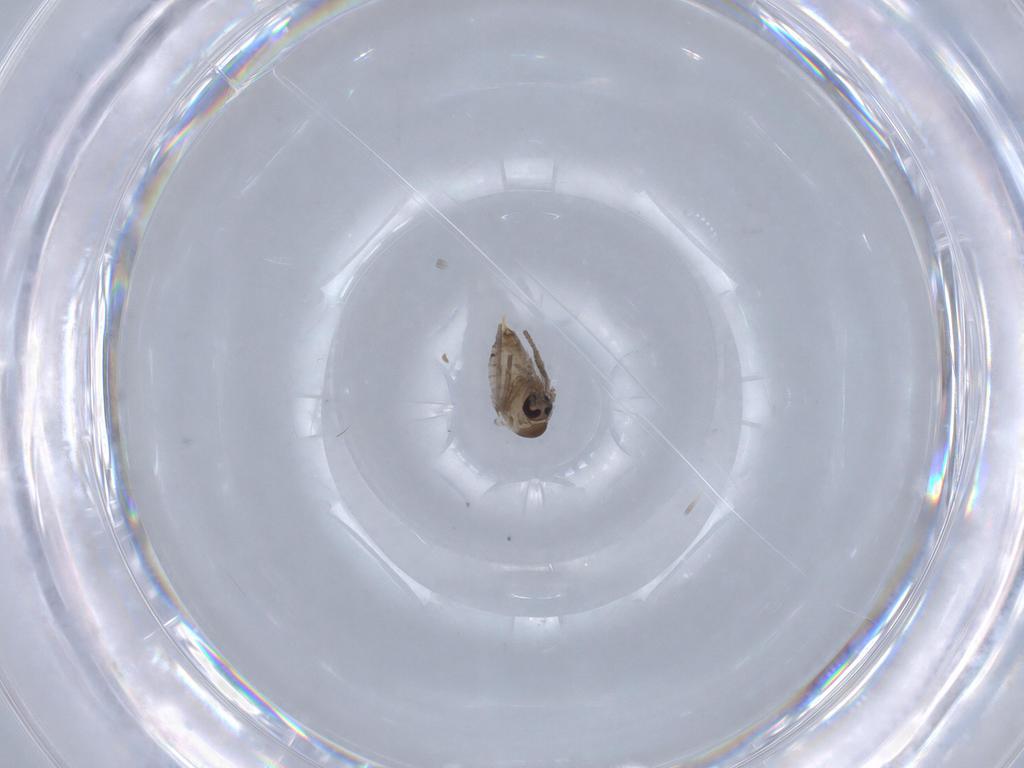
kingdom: Animalia
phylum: Arthropoda
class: Insecta
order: Diptera
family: Psychodidae
